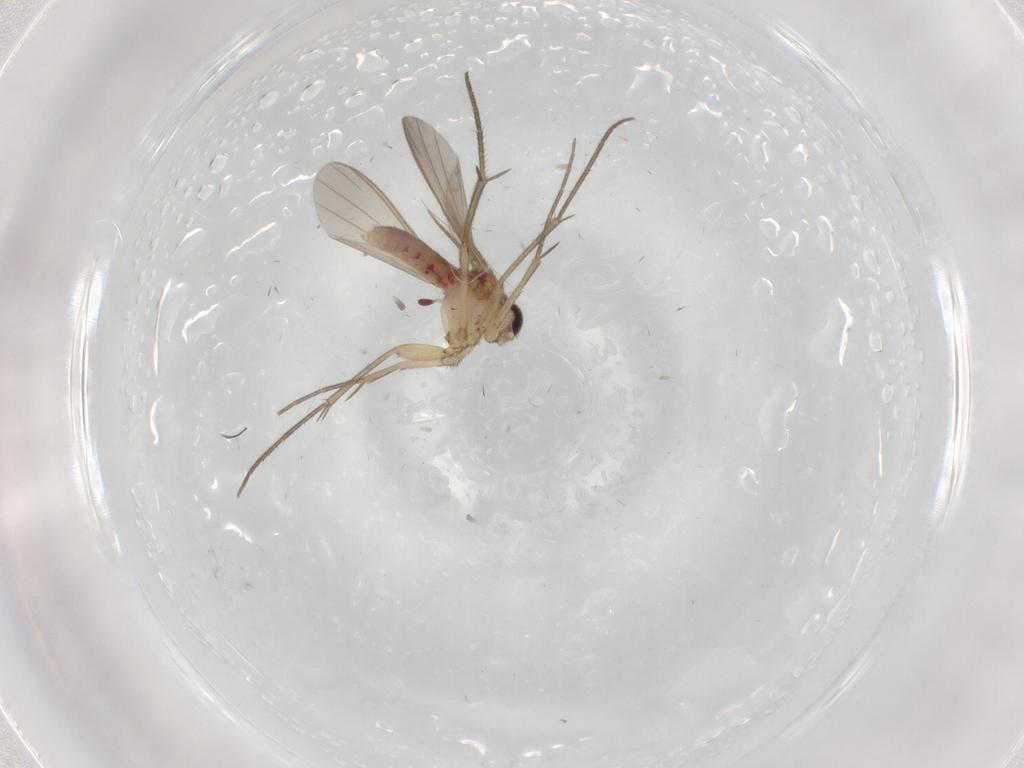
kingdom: Animalia
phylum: Arthropoda
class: Insecta
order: Diptera
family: Mycetophilidae
